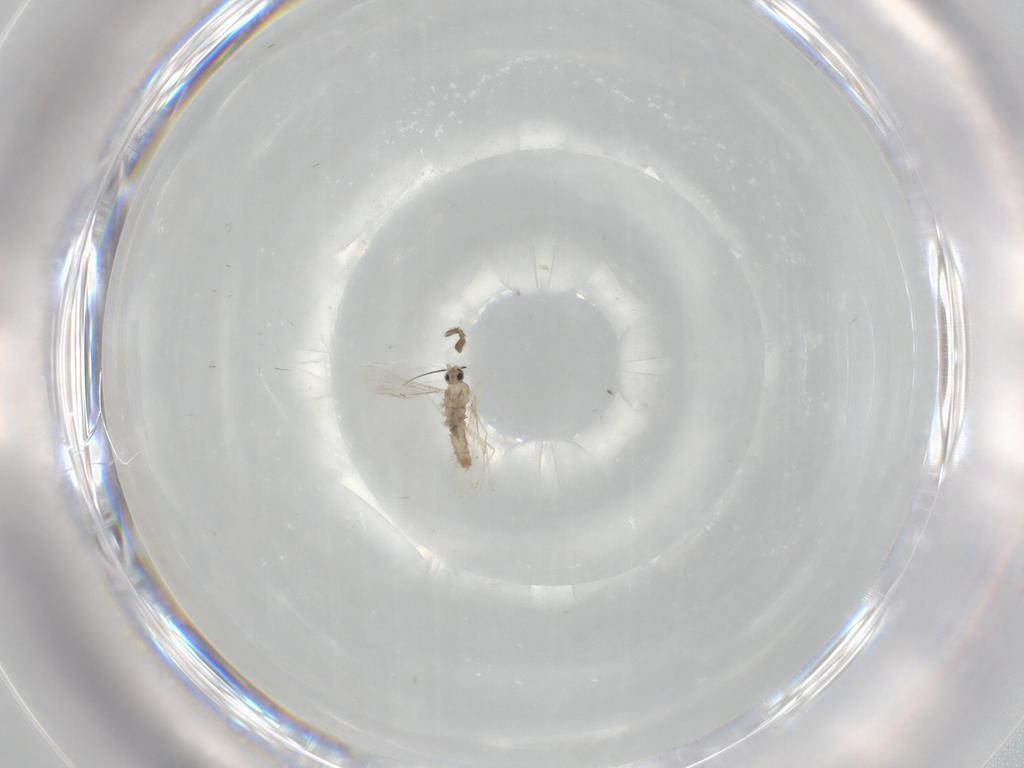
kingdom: Animalia
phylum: Arthropoda
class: Insecta
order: Diptera
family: Cecidomyiidae
